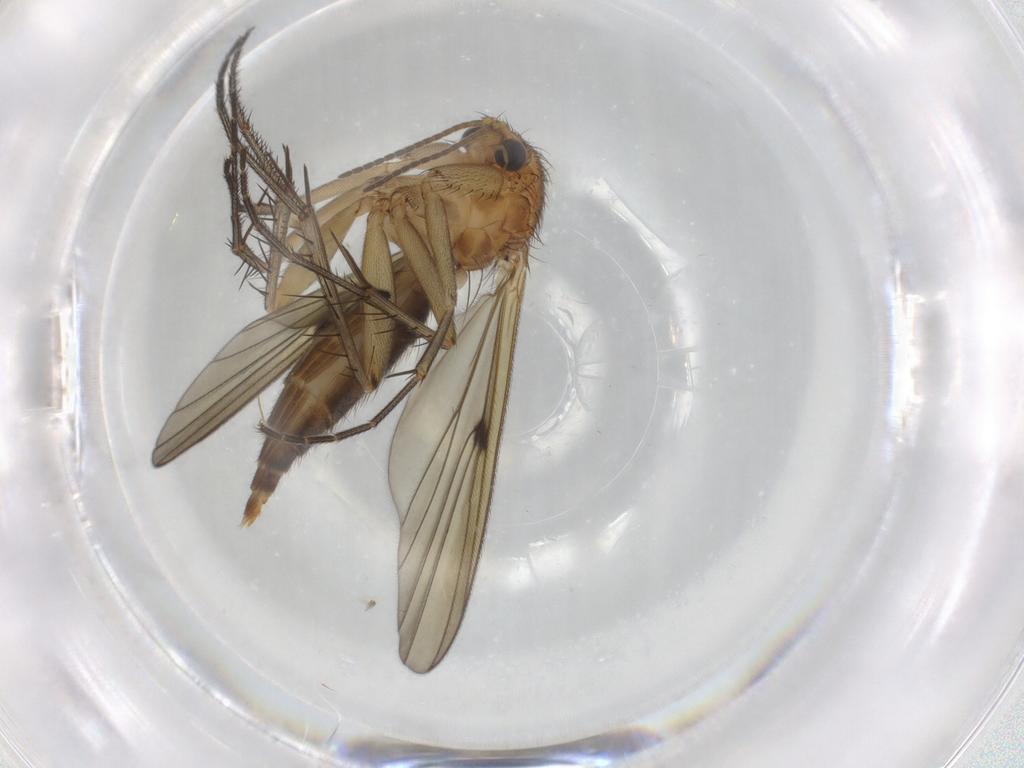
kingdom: Animalia
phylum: Arthropoda
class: Insecta
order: Diptera
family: Sciaridae
